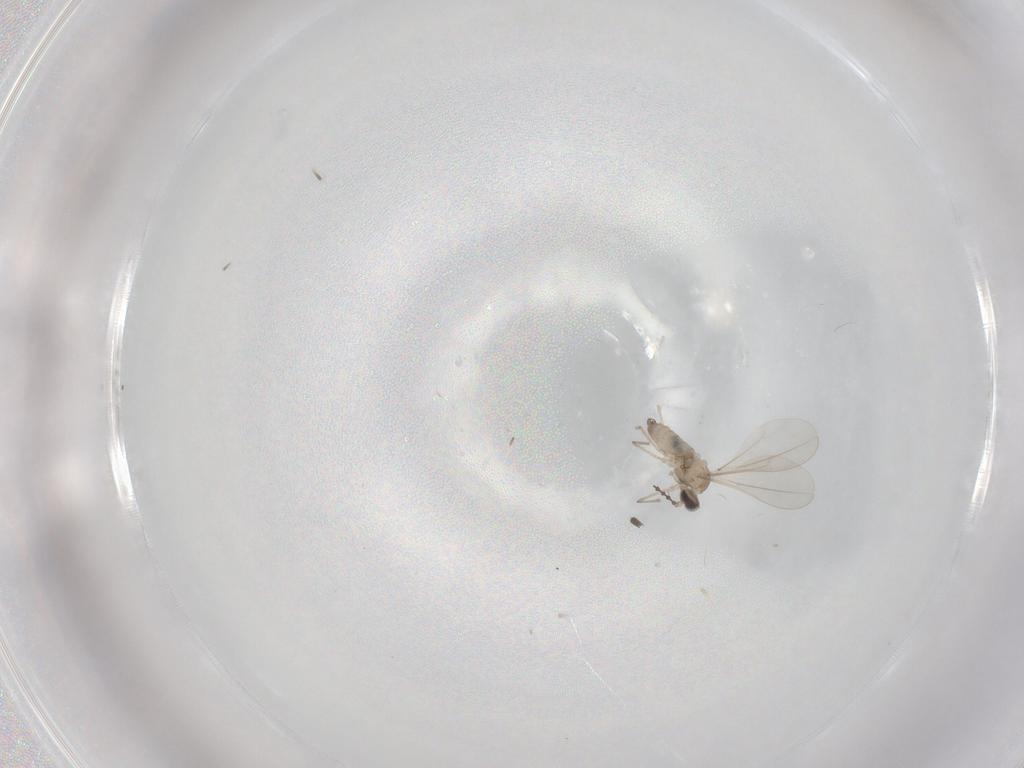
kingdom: Animalia
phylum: Arthropoda
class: Insecta
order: Diptera
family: Cecidomyiidae
